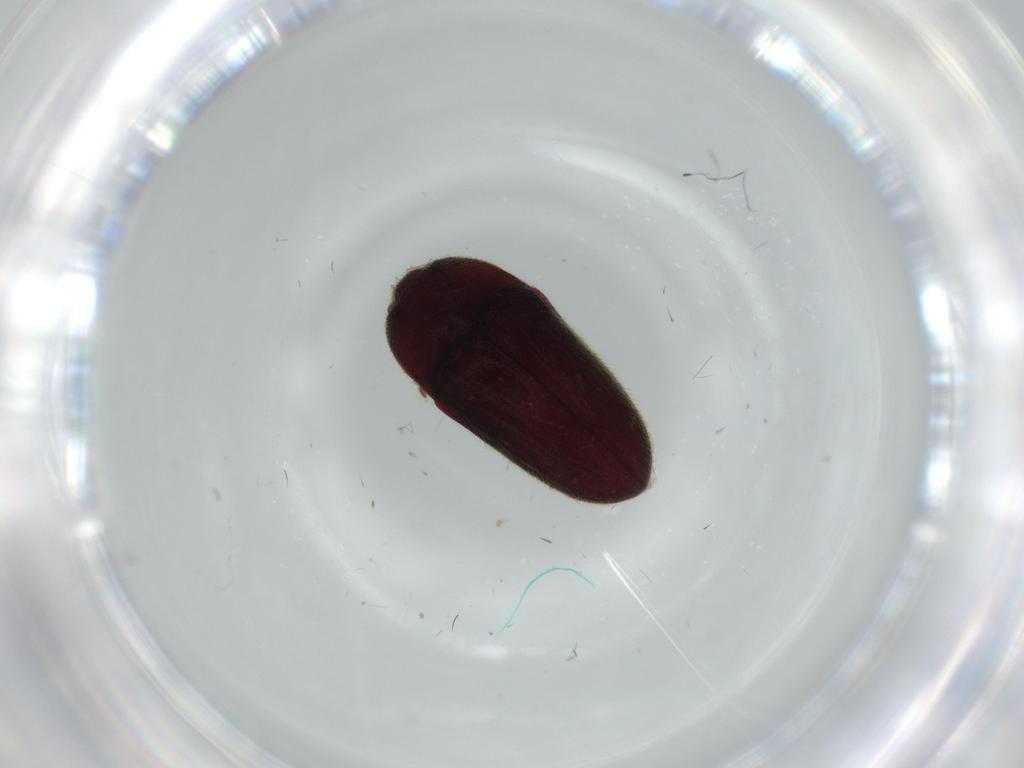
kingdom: Animalia
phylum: Arthropoda
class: Insecta
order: Coleoptera
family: Throscidae
